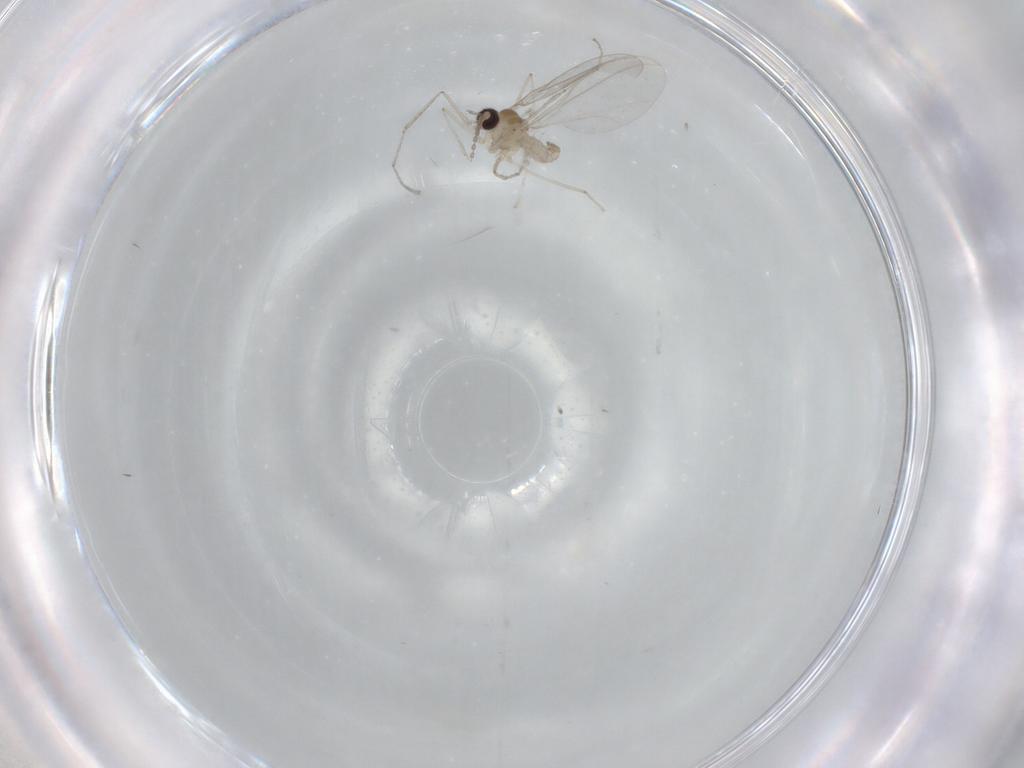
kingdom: Animalia
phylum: Arthropoda
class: Insecta
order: Diptera
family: Cecidomyiidae
